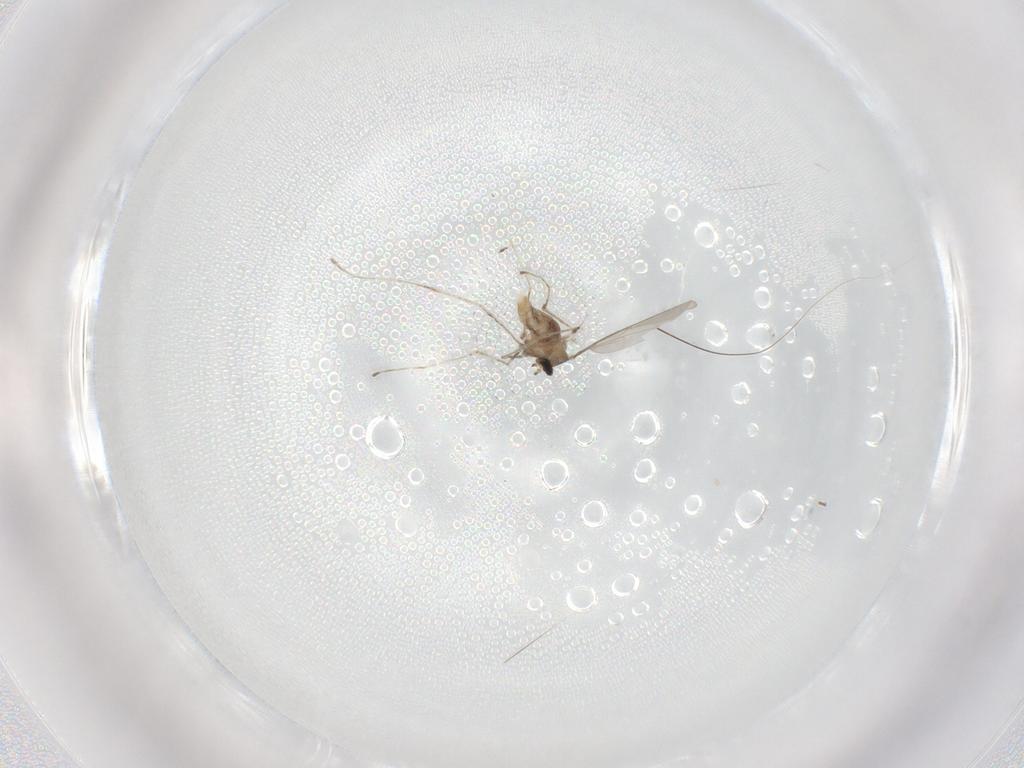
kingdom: Animalia
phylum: Arthropoda
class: Insecta
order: Diptera
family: Cecidomyiidae
